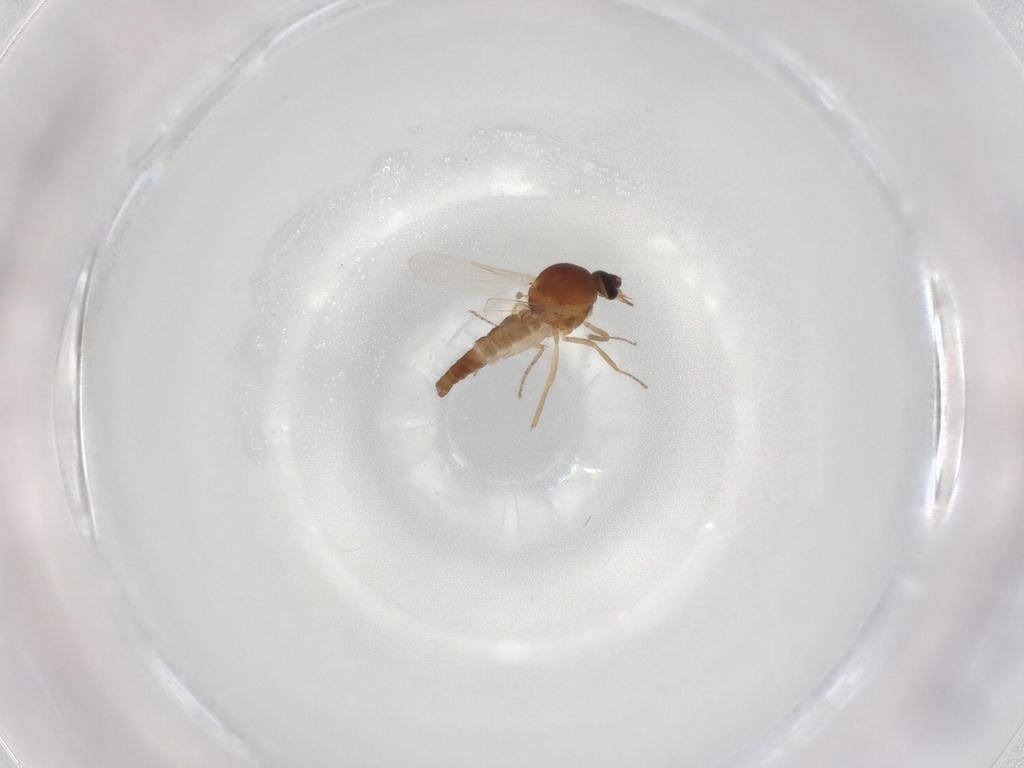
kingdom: Animalia
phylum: Arthropoda
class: Insecta
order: Diptera
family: Ceratopogonidae
